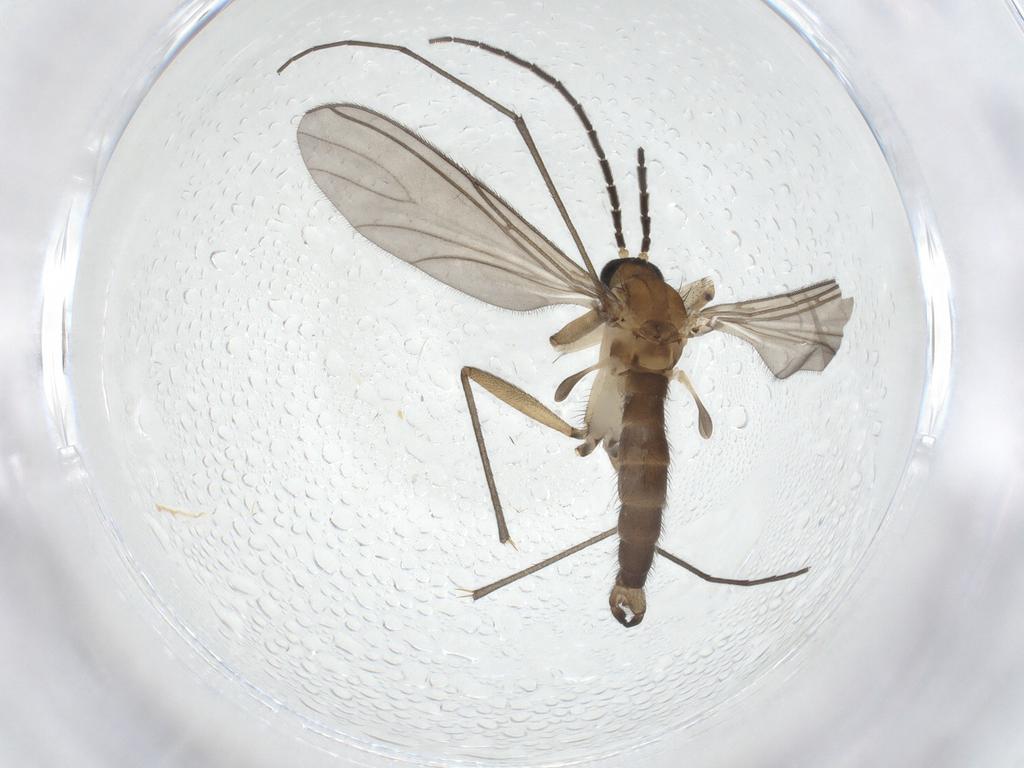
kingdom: Animalia
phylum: Arthropoda
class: Insecta
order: Diptera
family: Sciaridae
